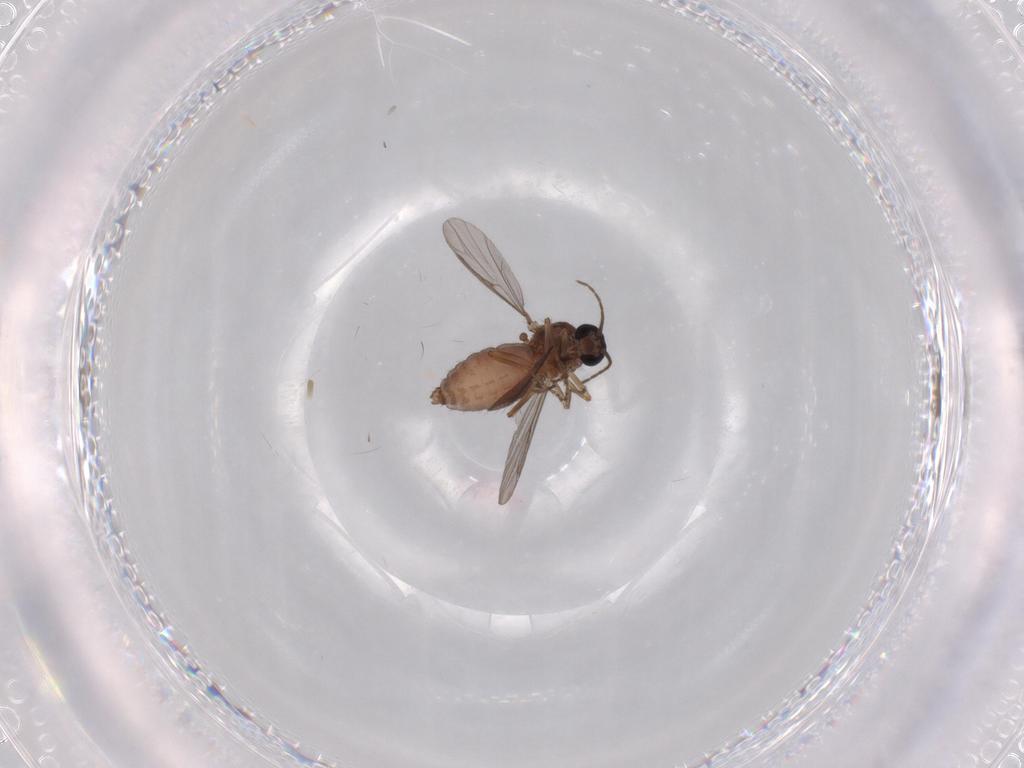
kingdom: Animalia
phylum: Arthropoda
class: Insecta
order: Diptera
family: Ceratopogonidae
